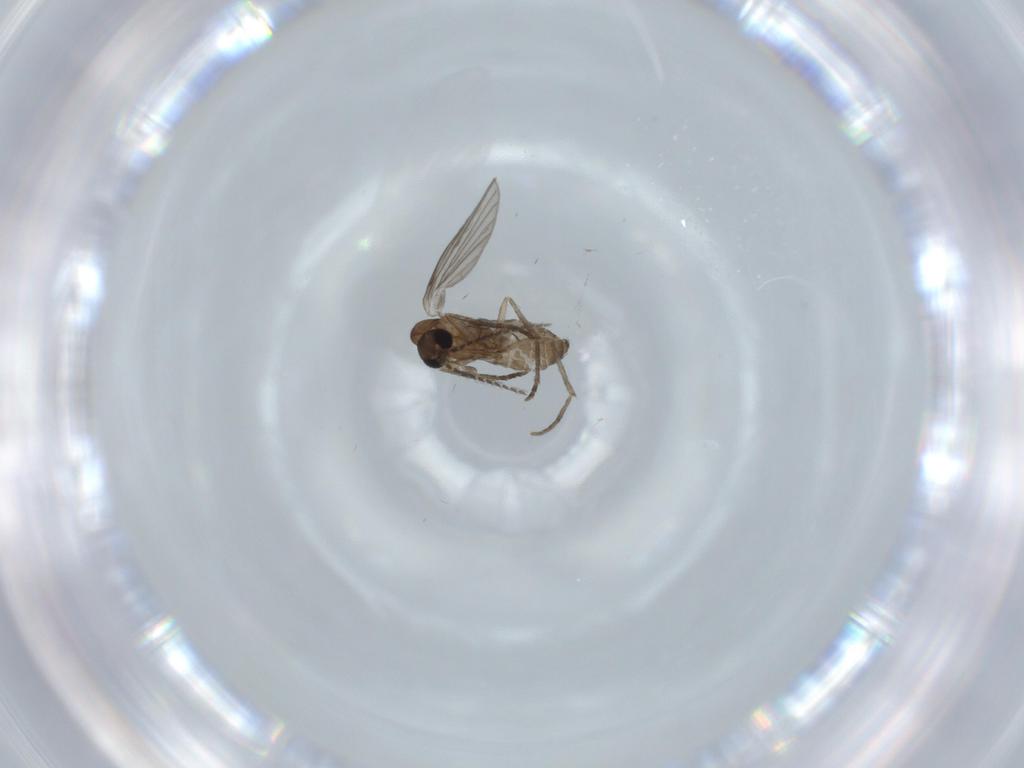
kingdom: Animalia
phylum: Arthropoda
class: Insecta
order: Diptera
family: Psychodidae
